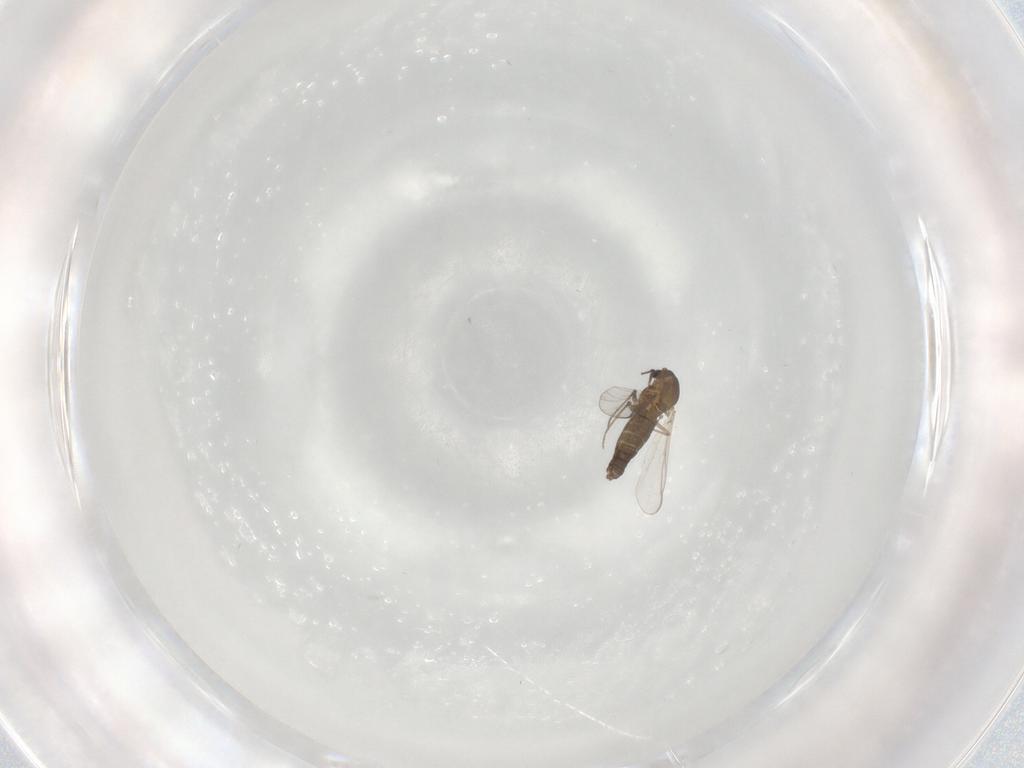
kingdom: Animalia
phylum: Arthropoda
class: Insecta
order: Diptera
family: Chironomidae
